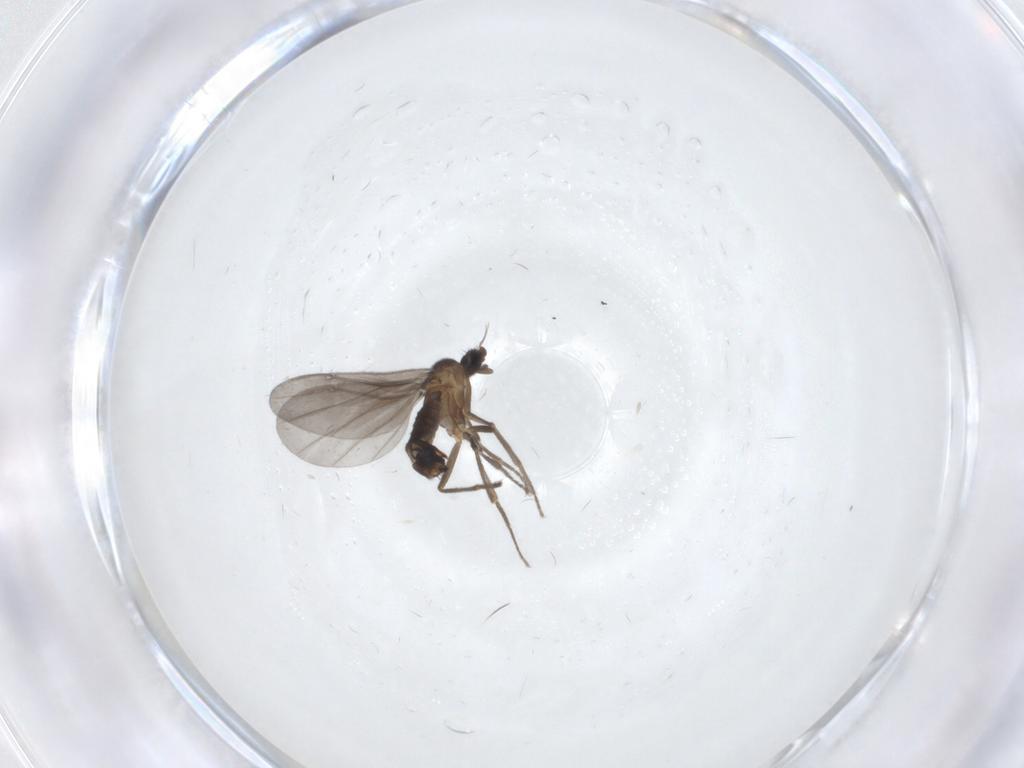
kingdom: Animalia
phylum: Arthropoda
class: Insecta
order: Diptera
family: Phoridae
